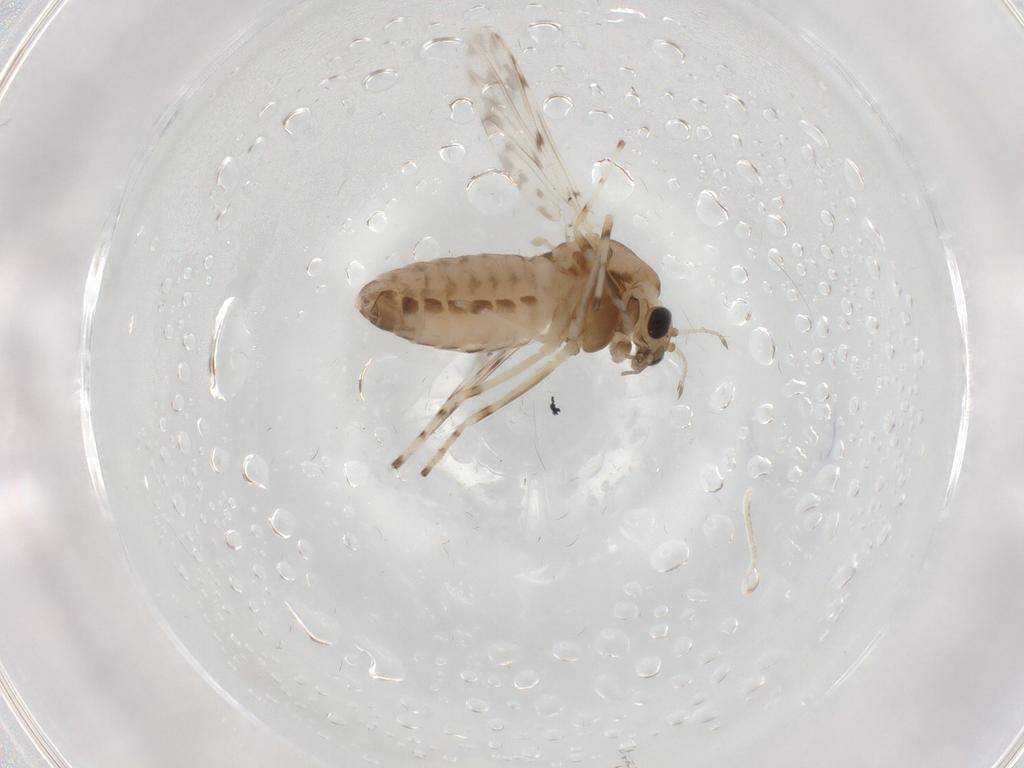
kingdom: Animalia
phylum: Arthropoda
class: Insecta
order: Diptera
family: Chironomidae
